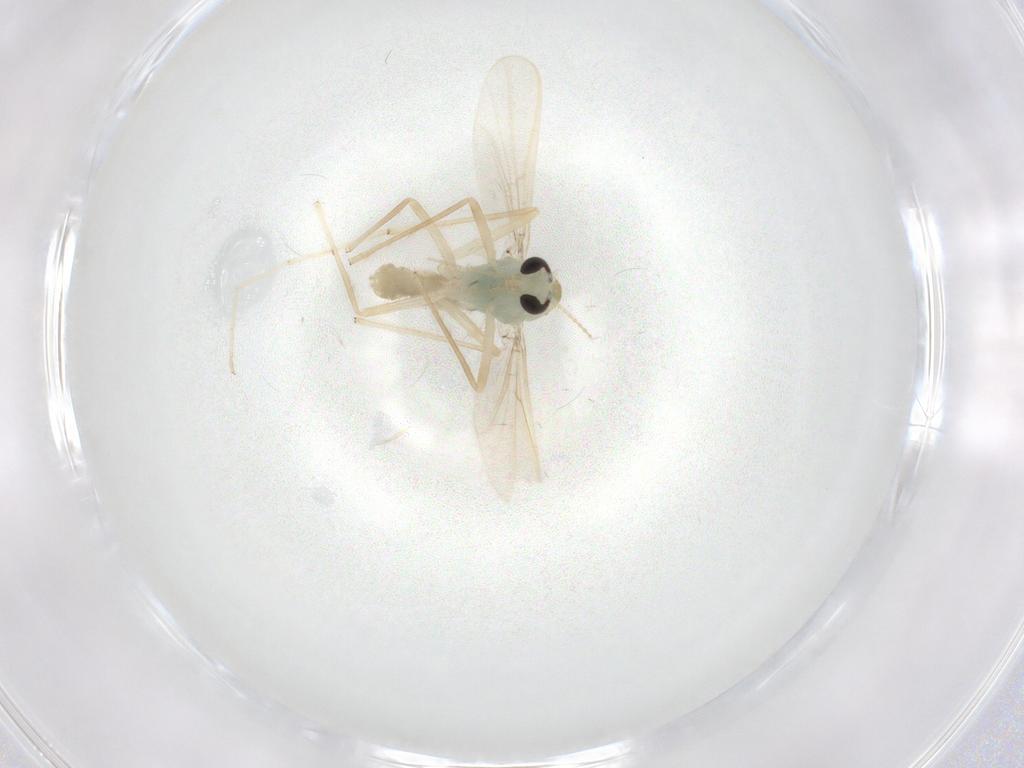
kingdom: Animalia
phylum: Arthropoda
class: Insecta
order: Diptera
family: Chironomidae
